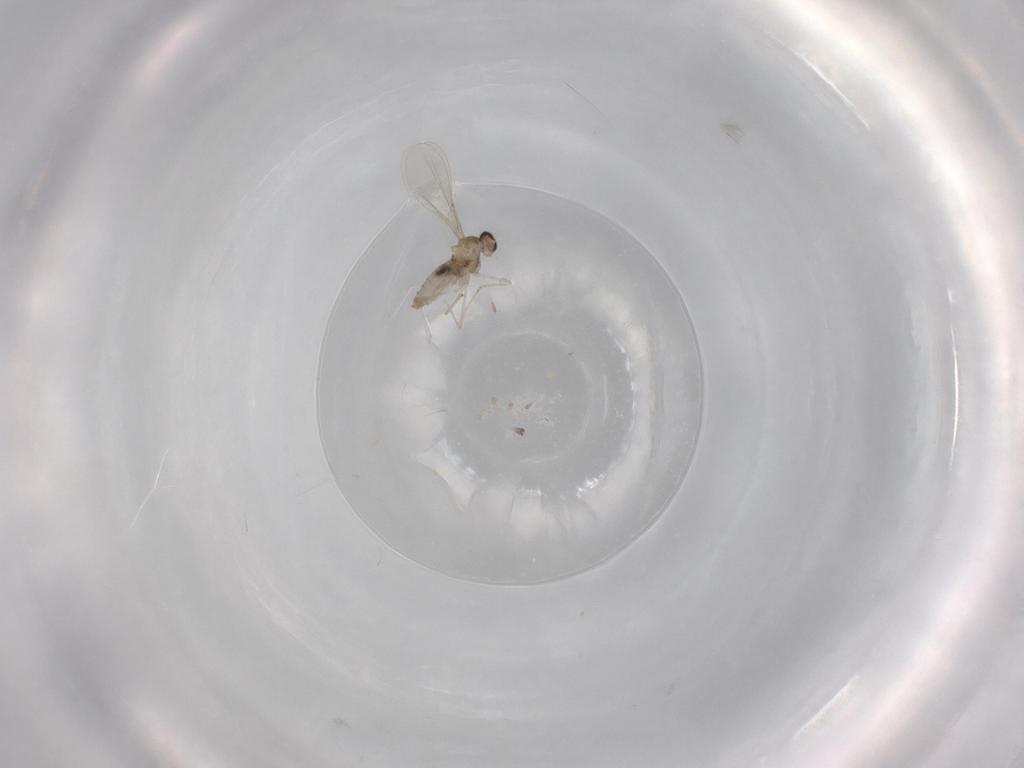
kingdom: Animalia
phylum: Arthropoda
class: Insecta
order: Diptera
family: Cecidomyiidae
